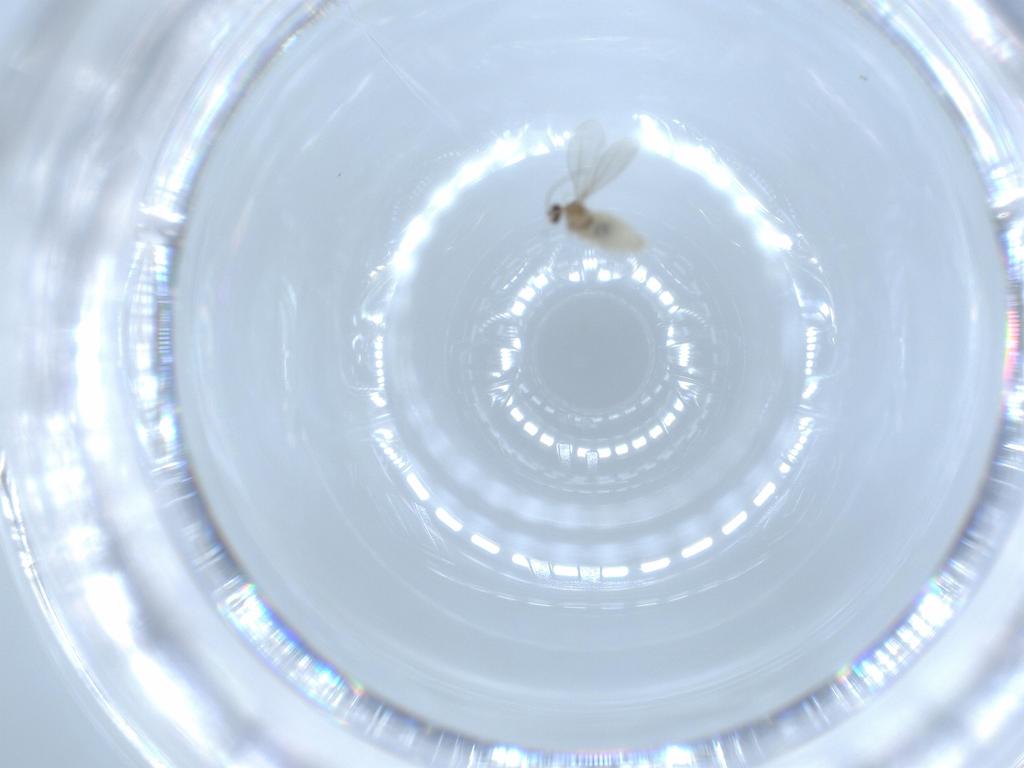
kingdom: Animalia
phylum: Arthropoda
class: Insecta
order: Diptera
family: Cecidomyiidae
